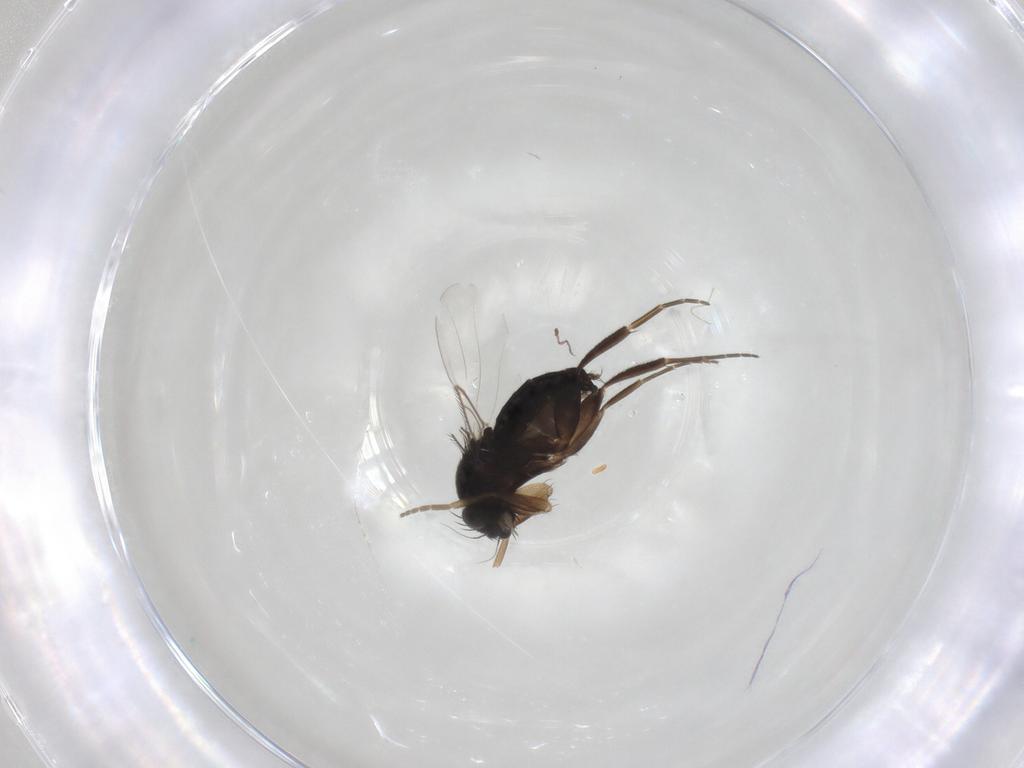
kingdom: Animalia
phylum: Arthropoda
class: Insecta
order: Diptera
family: Phoridae
